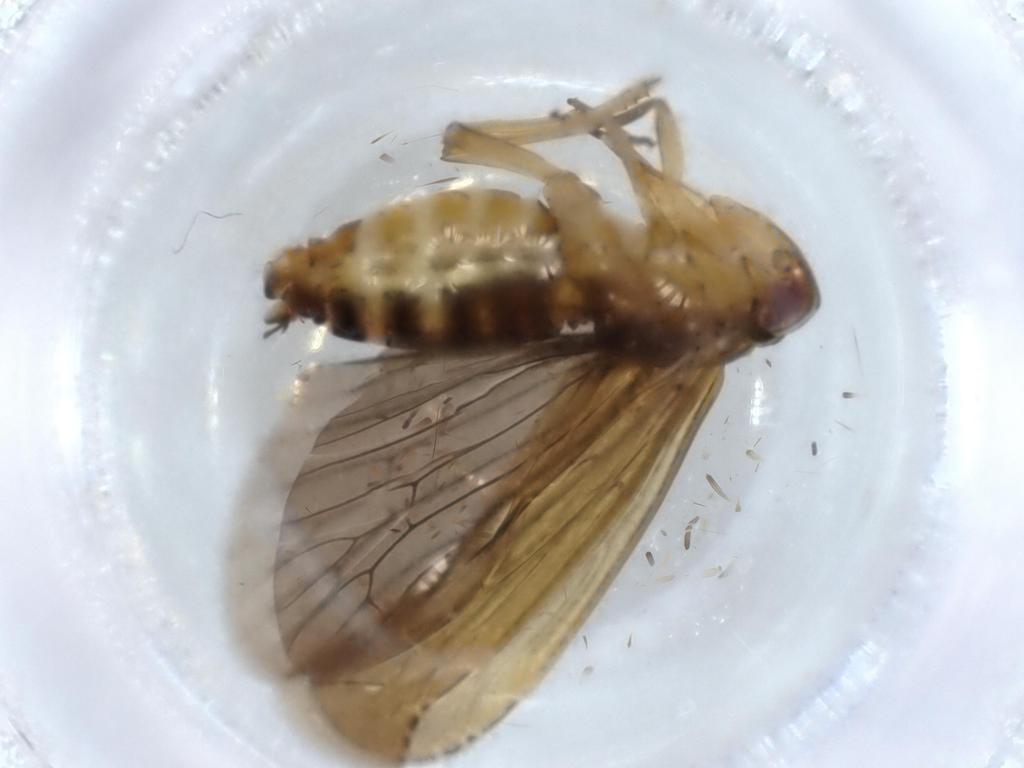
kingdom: Animalia
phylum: Arthropoda
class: Insecta
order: Hemiptera
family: Achilidae
